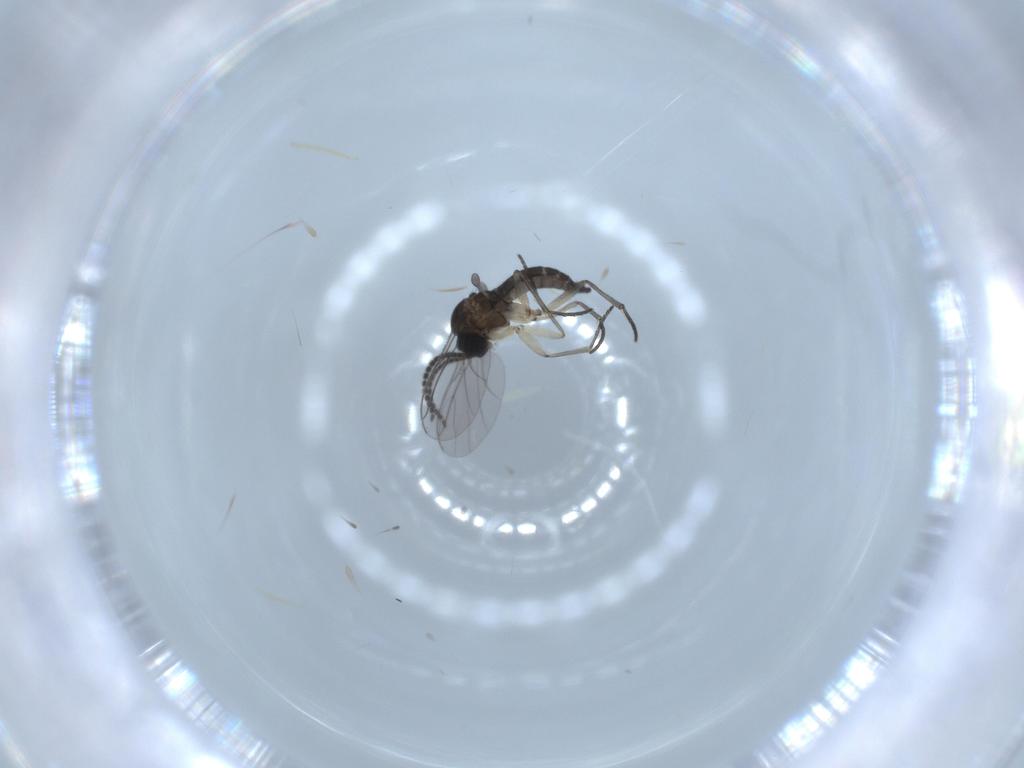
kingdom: Animalia
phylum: Arthropoda
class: Insecta
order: Diptera
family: Sciaridae
